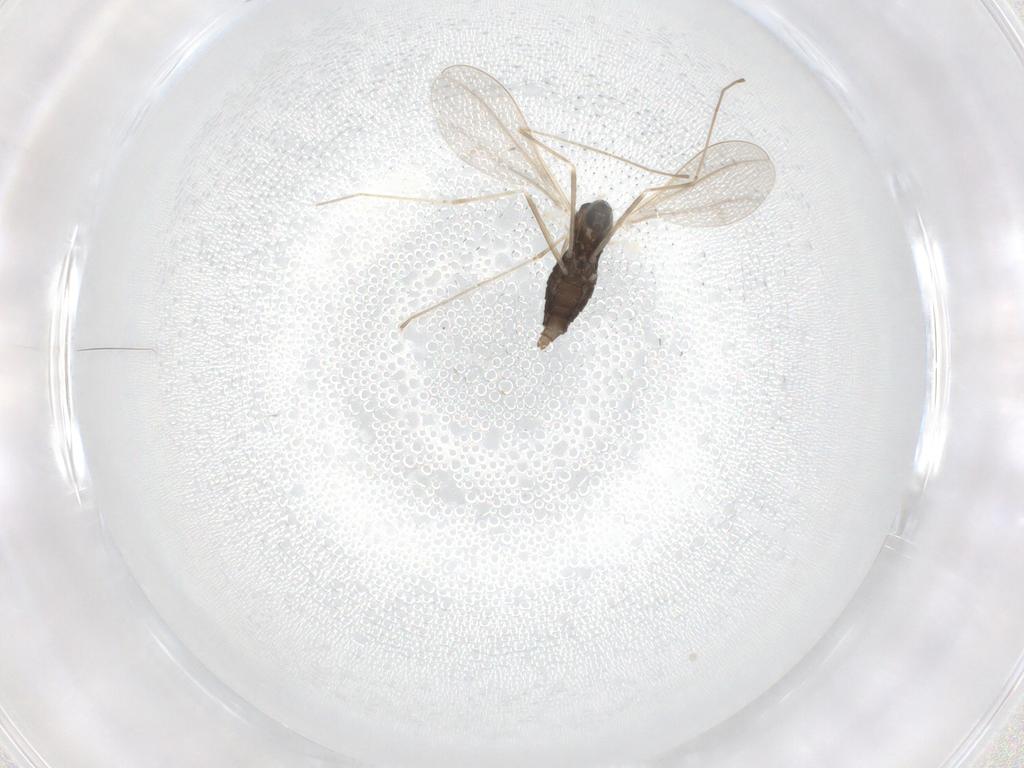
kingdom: Animalia
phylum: Arthropoda
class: Insecta
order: Diptera
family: Cecidomyiidae
